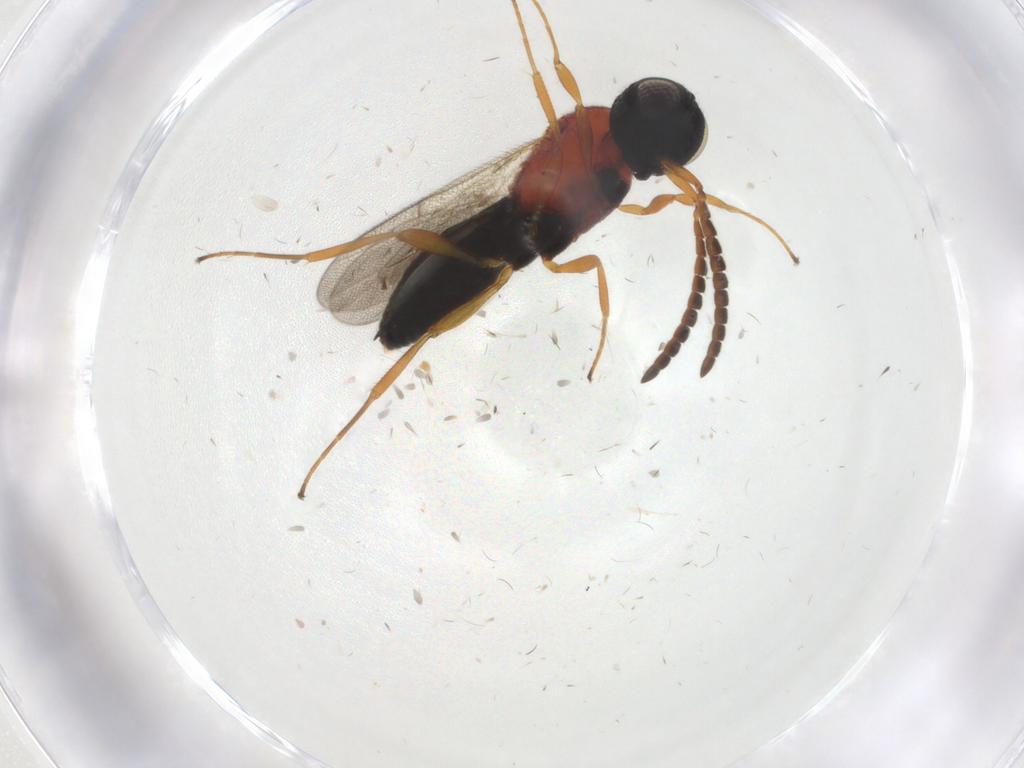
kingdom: Animalia
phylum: Arthropoda
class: Insecta
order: Hymenoptera
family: Scelionidae
